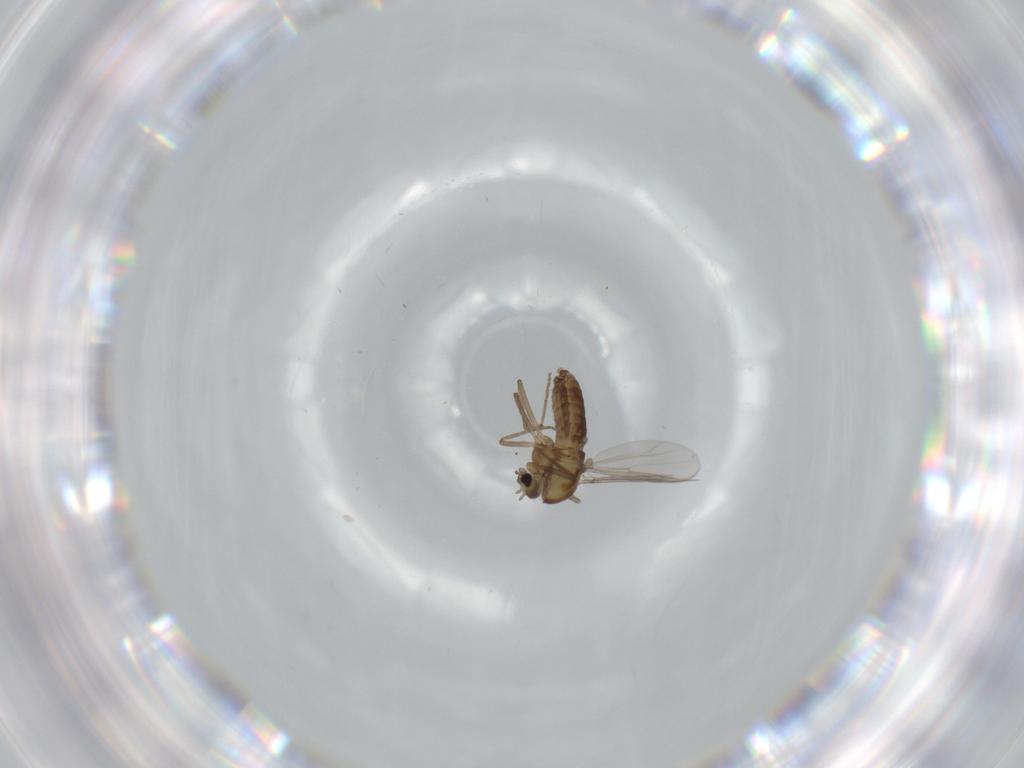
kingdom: Animalia
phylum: Arthropoda
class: Insecta
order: Diptera
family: Chironomidae
